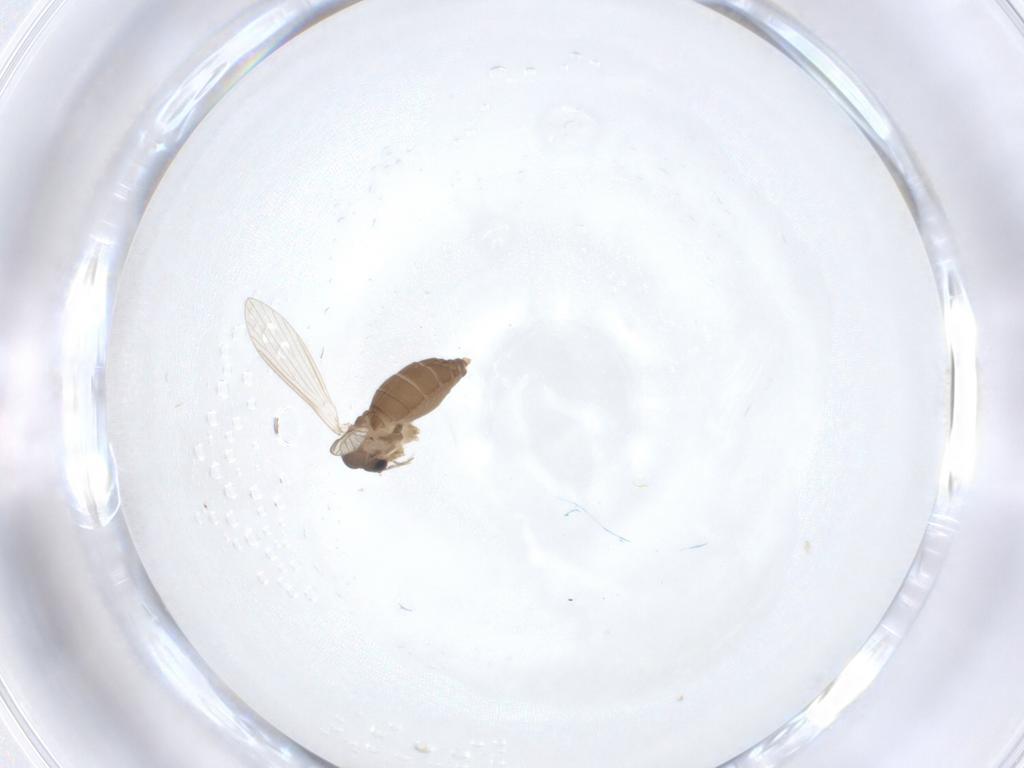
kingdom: Animalia
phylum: Arthropoda
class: Insecta
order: Diptera
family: Psychodidae
